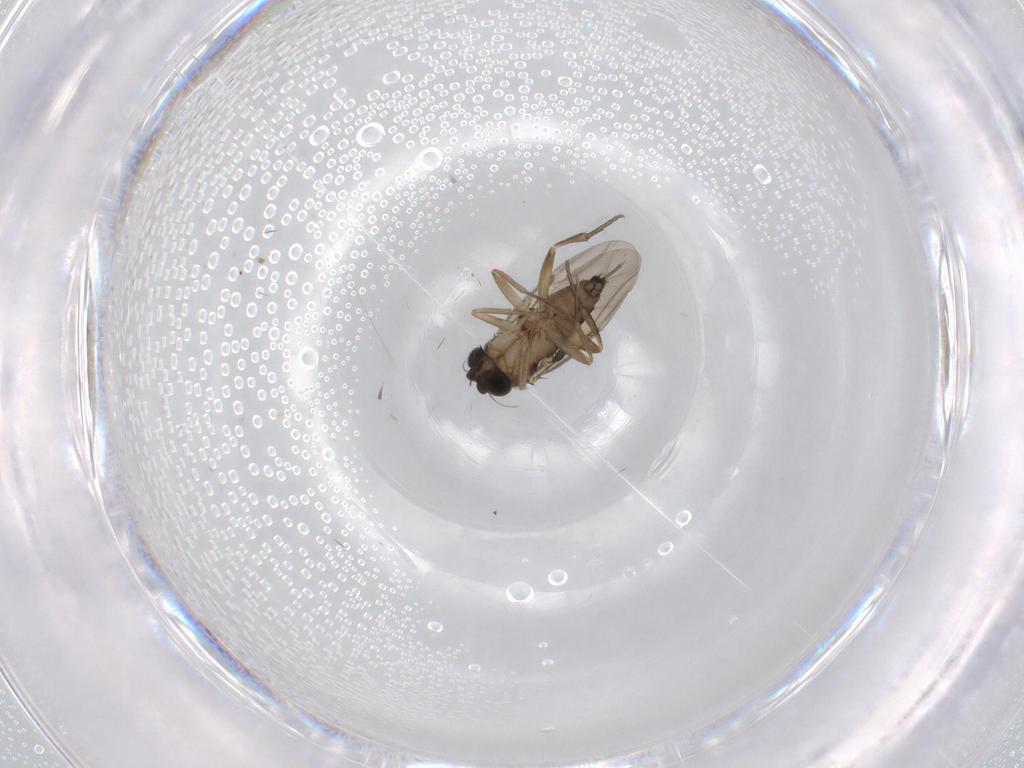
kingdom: Animalia
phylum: Arthropoda
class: Insecta
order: Diptera
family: Phoridae
